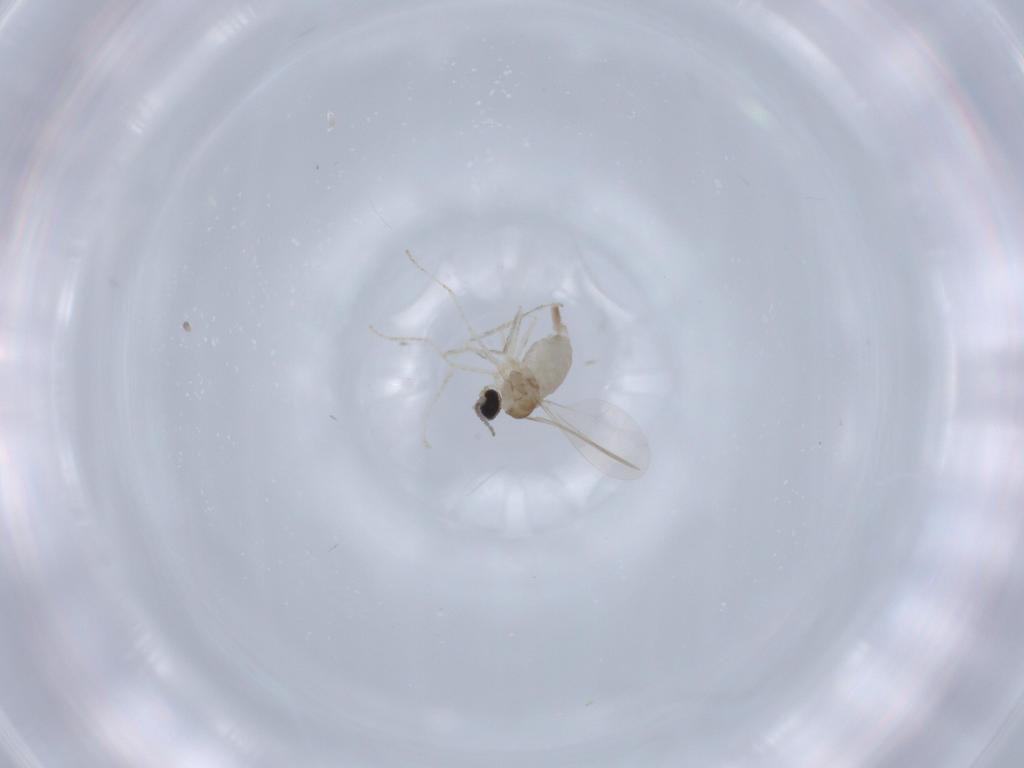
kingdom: Animalia
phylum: Arthropoda
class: Insecta
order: Diptera
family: Cecidomyiidae
